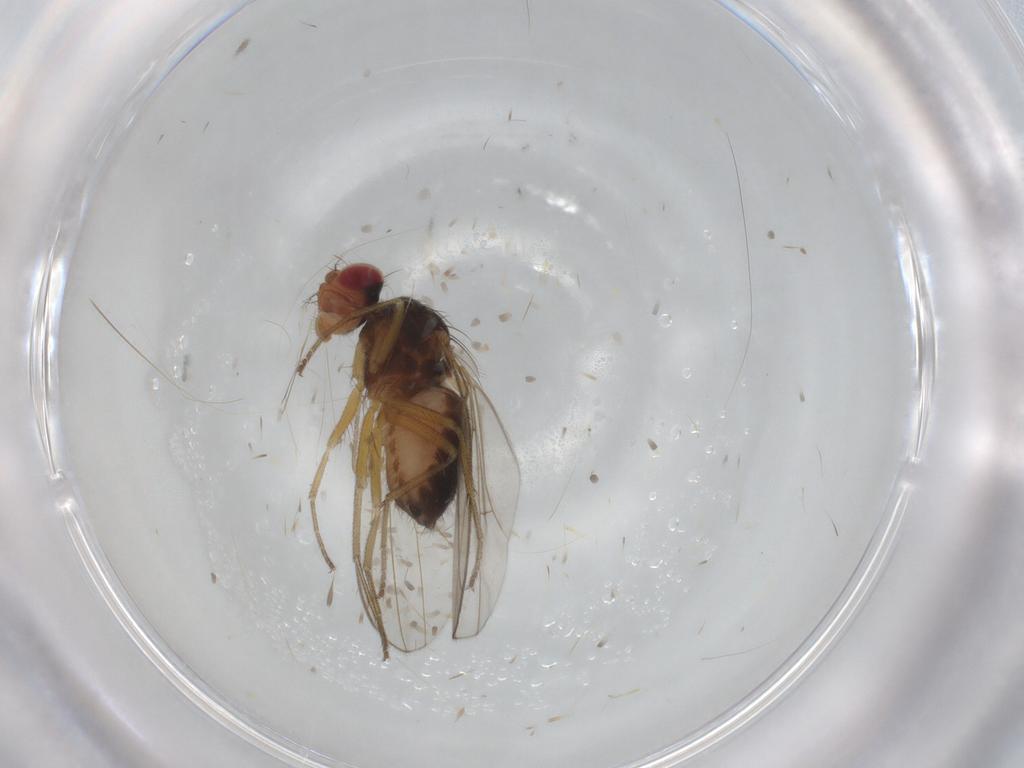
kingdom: Animalia
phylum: Arthropoda
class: Insecta
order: Diptera
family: Drosophilidae
